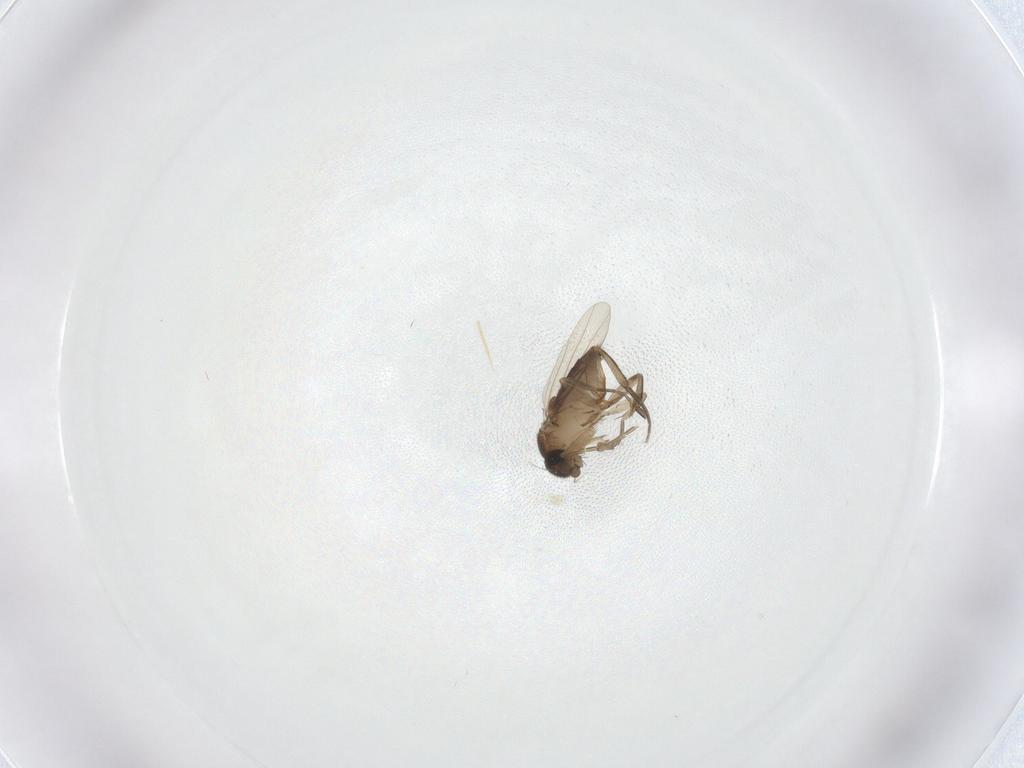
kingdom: Animalia
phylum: Arthropoda
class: Insecta
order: Diptera
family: Phoridae
